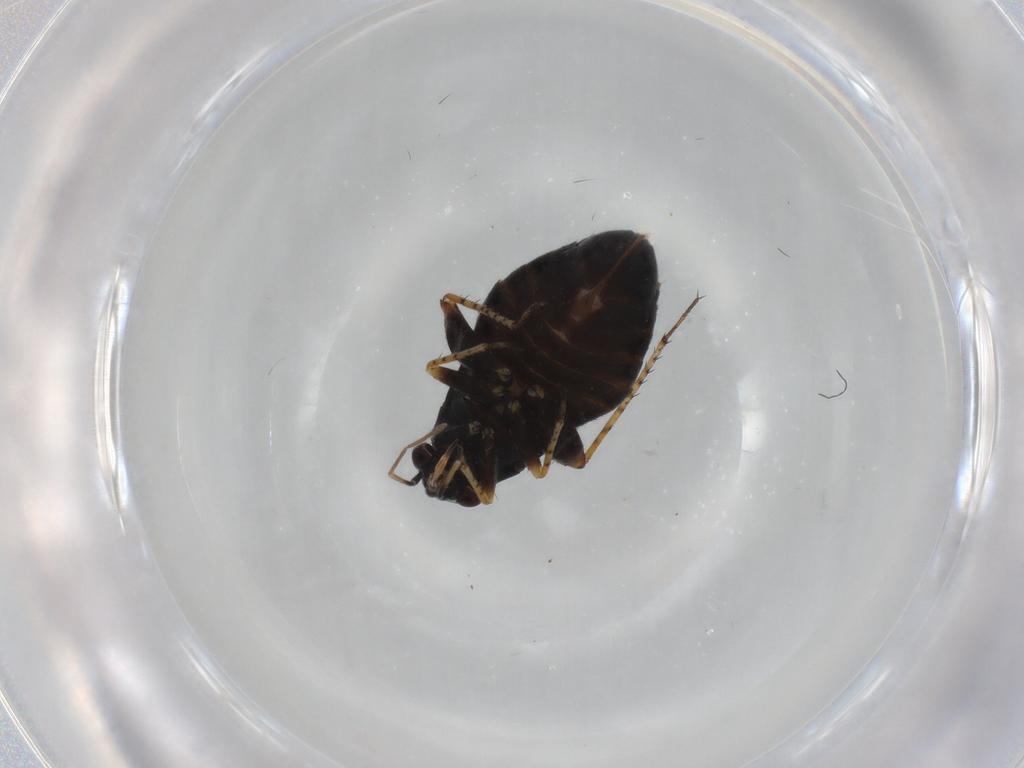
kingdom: Animalia
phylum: Arthropoda
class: Insecta
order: Hemiptera
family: Miridae
